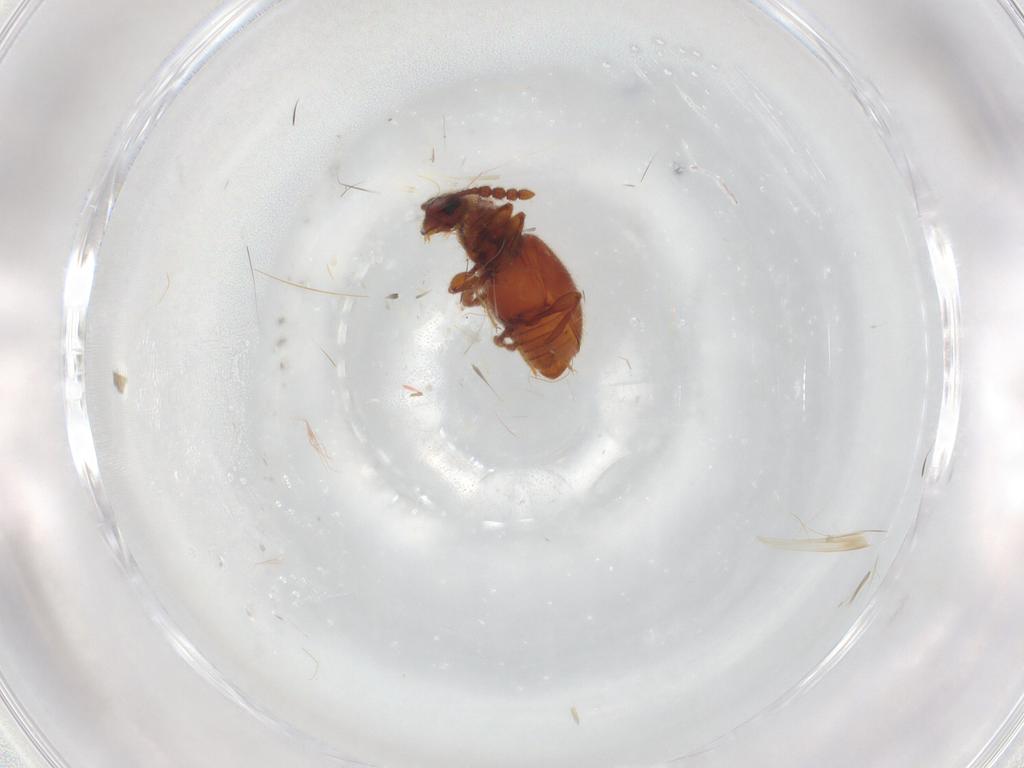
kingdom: Animalia
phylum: Arthropoda
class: Insecta
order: Coleoptera
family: Staphylinidae
